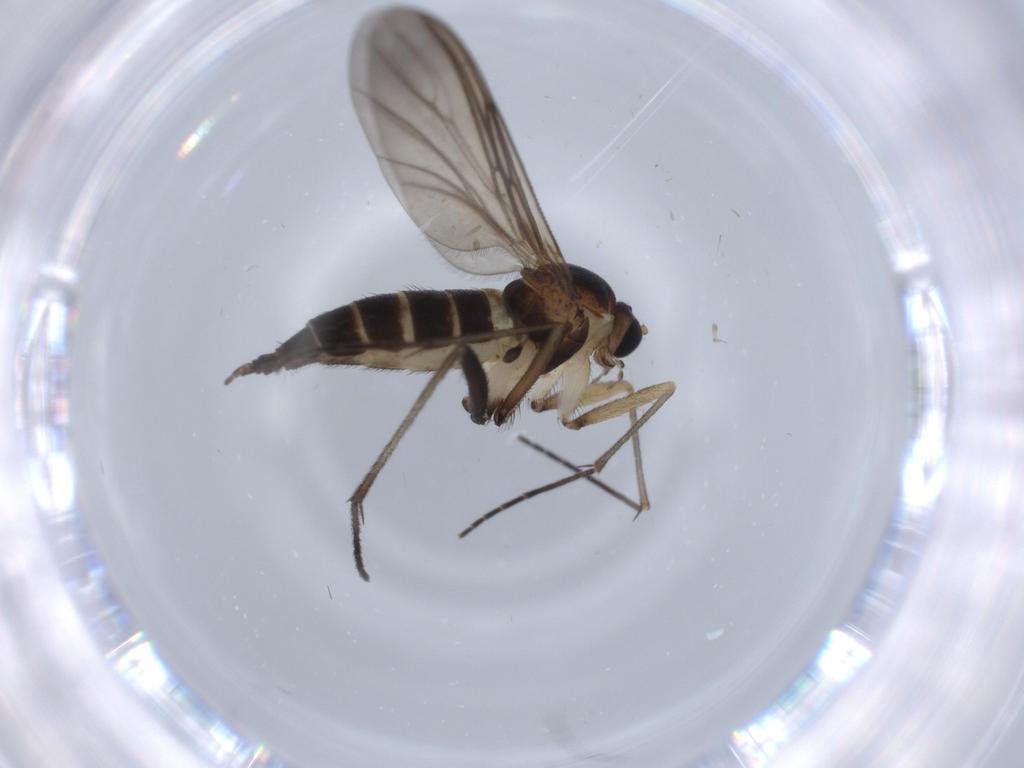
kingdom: Animalia
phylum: Arthropoda
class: Insecta
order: Diptera
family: Sciaridae
